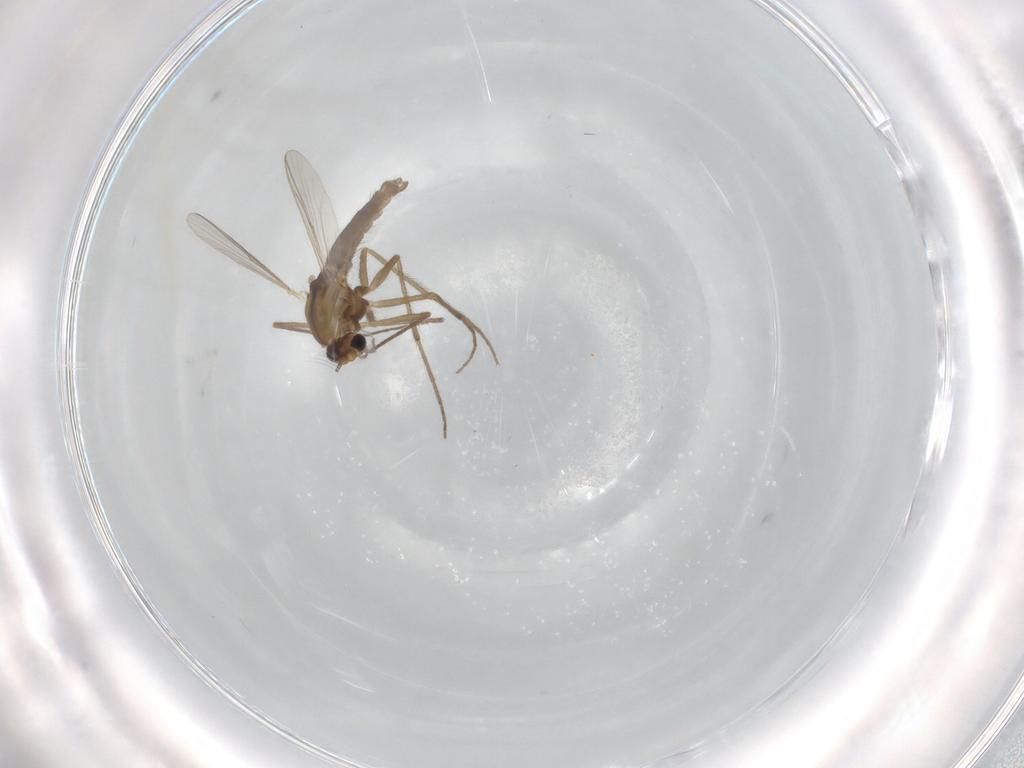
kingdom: Animalia
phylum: Arthropoda
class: Insecta
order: Diptera
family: Chironomidae
